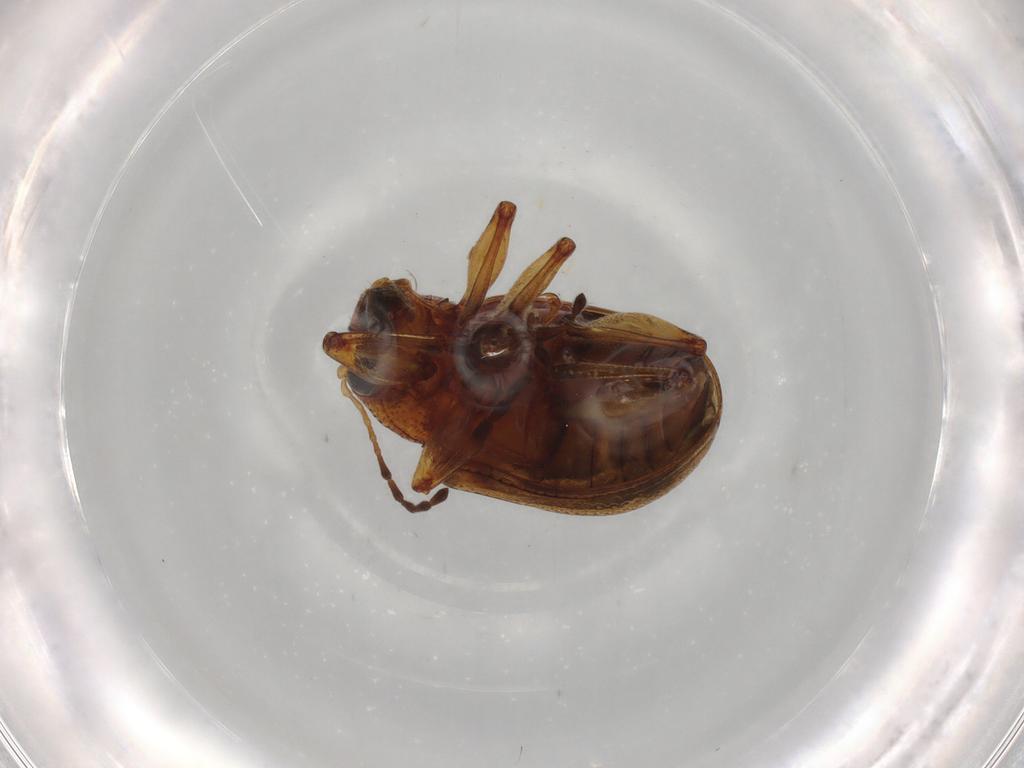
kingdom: Animalia
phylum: Arthropoda
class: Insecta
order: Coleoptera
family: Chrysomelidae
